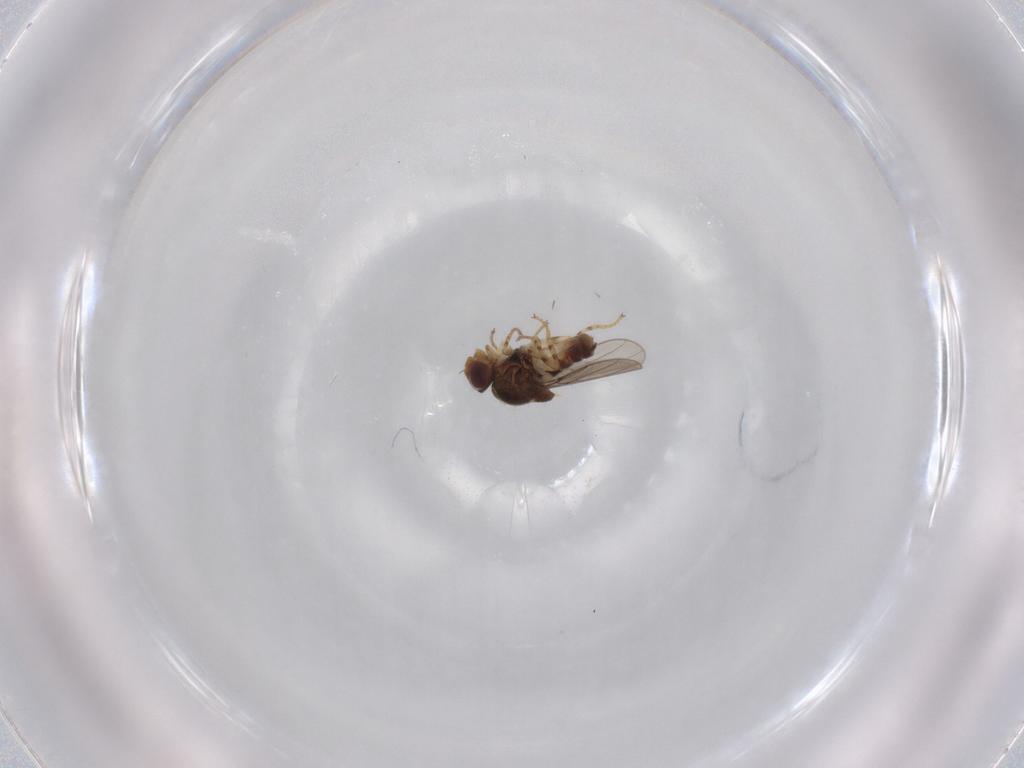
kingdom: Animalia
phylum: Arthropoda
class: Insecta
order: Diptera
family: Chloropidae
